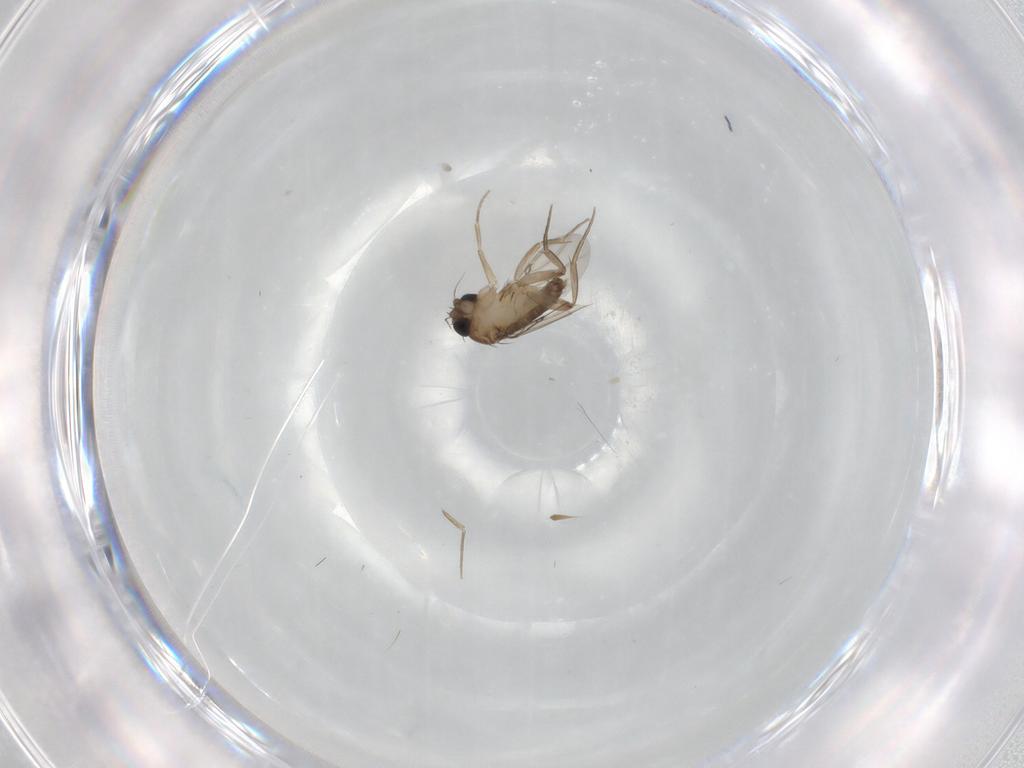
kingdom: Animalia
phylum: Arthropoda
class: Insecta
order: Diptera
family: Phoridae
